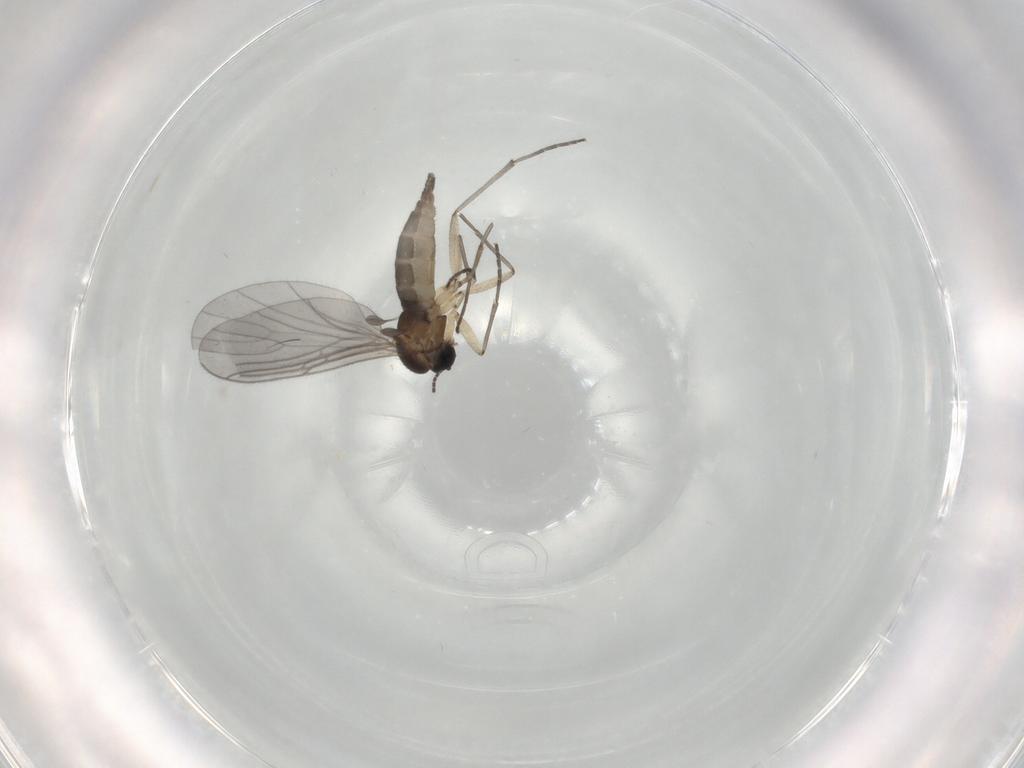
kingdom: Animalia
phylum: Arthropoda
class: Insecta
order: Diptera
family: Sciaridae
